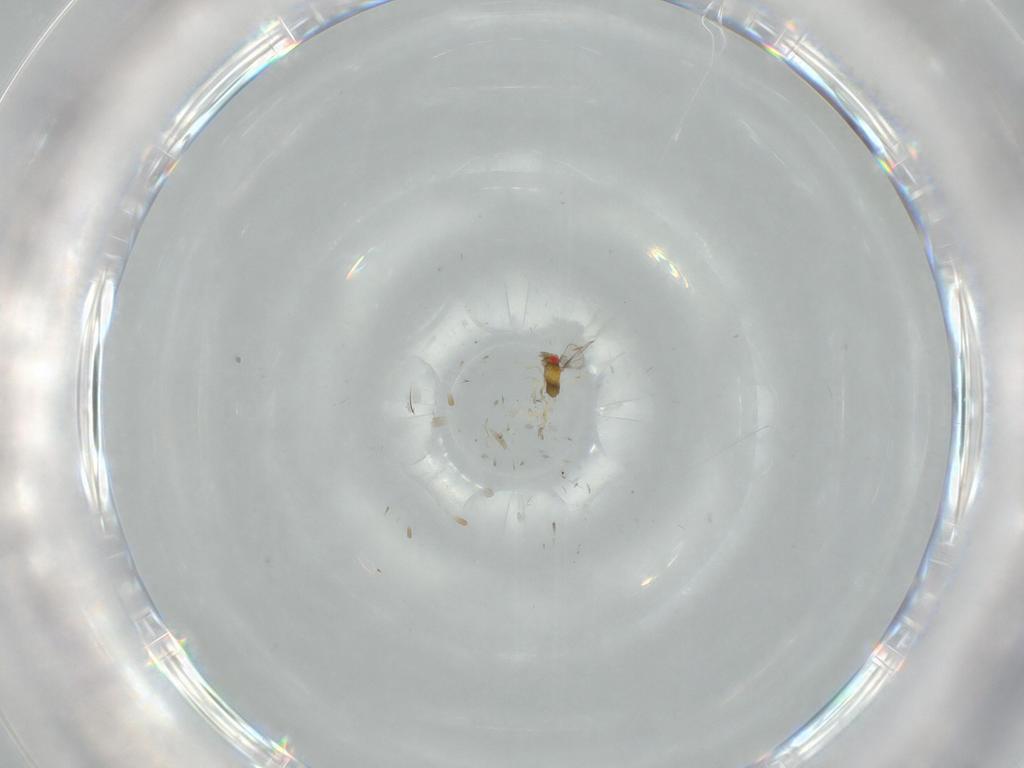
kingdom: Animalia
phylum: Arthropoda
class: Insecta
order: Hymenoptera
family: Trichogrammatidae
